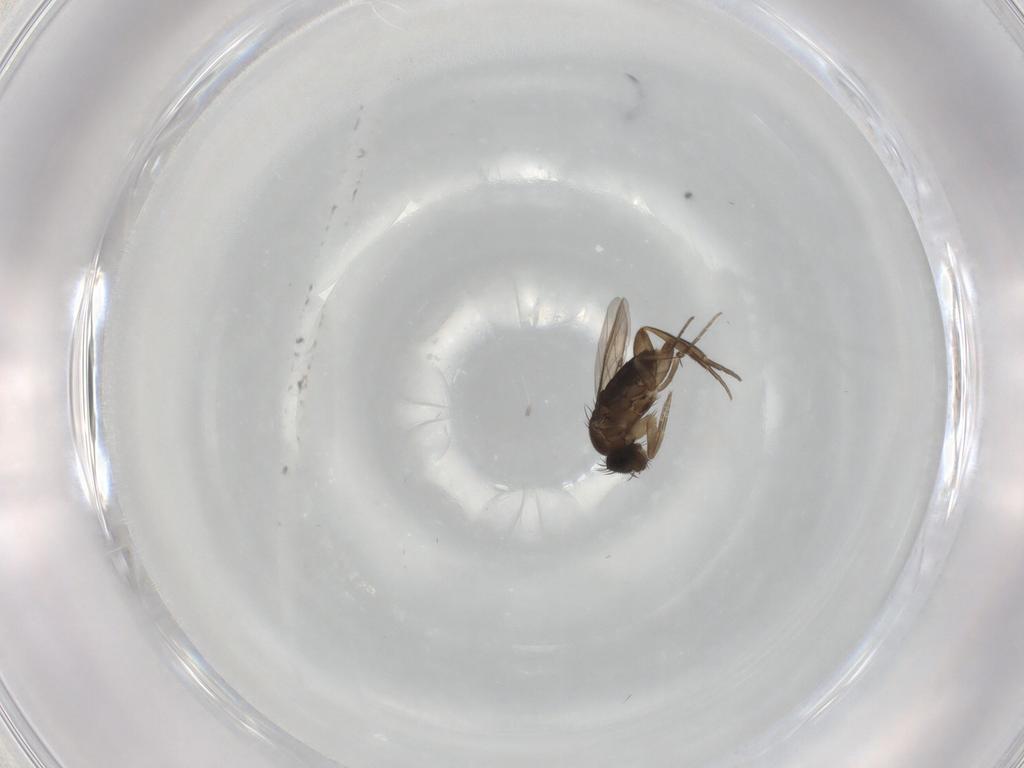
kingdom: Animalia
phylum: Arthropoda
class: Insecta
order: Diptera
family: Phoridae
